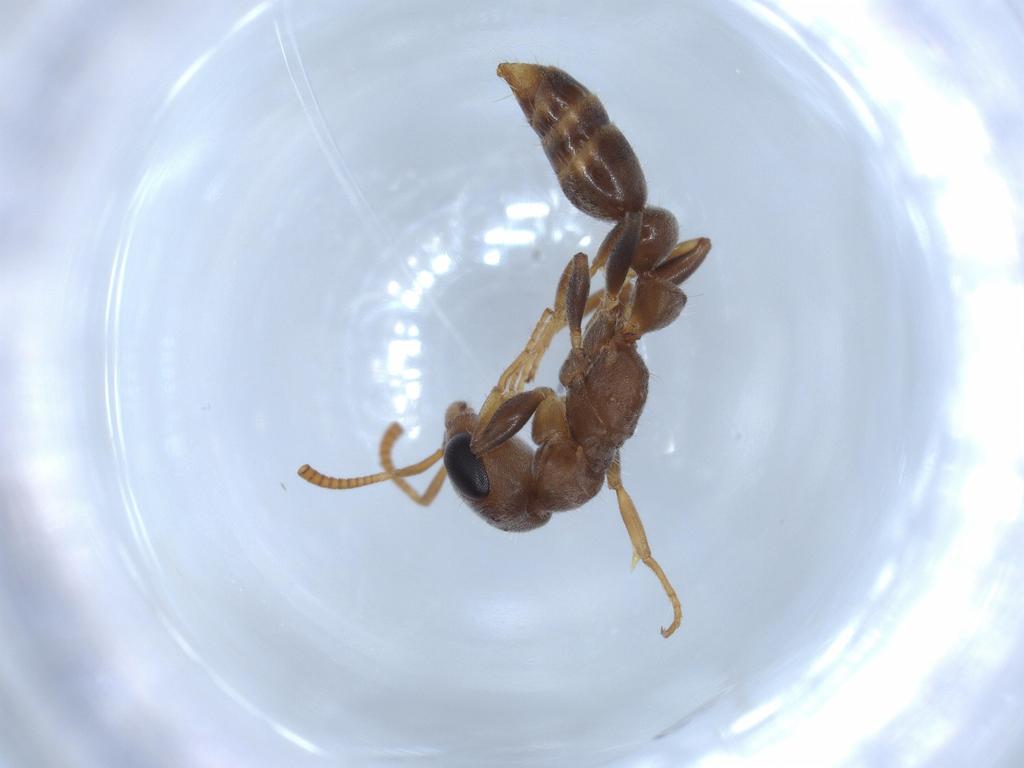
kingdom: Animalia
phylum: Arthropoda
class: Insecta
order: Hymenoptera
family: Formicidae
